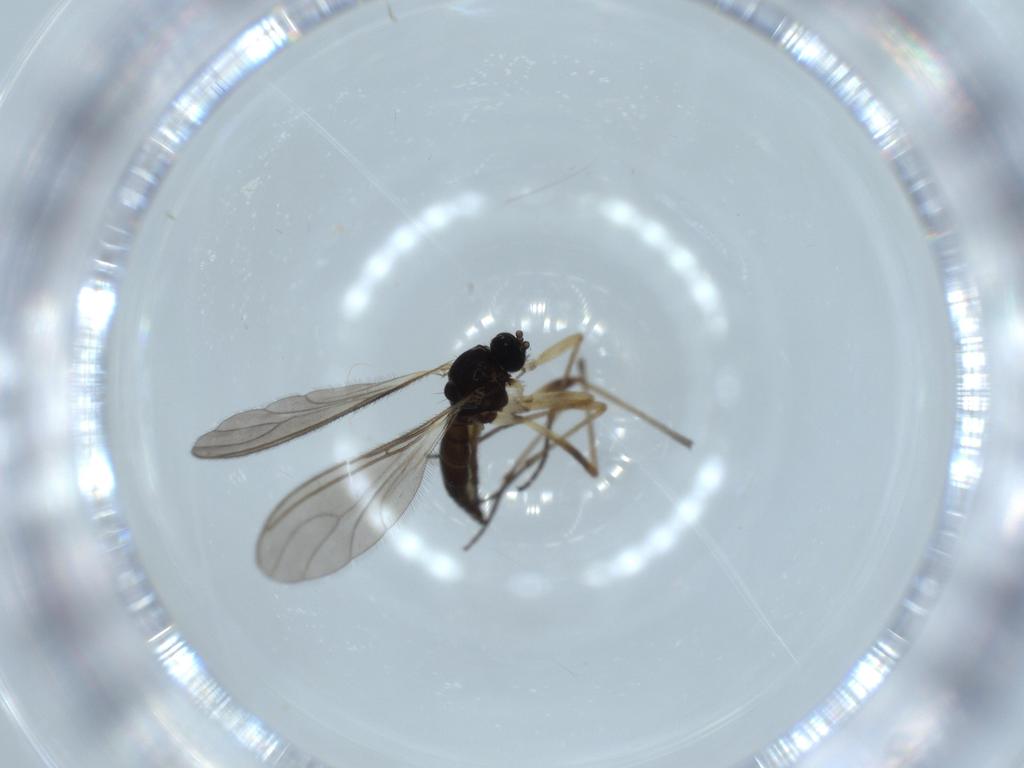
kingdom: Animalia
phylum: Arthropoda
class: Insecta
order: Diptera
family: Sciaridae
